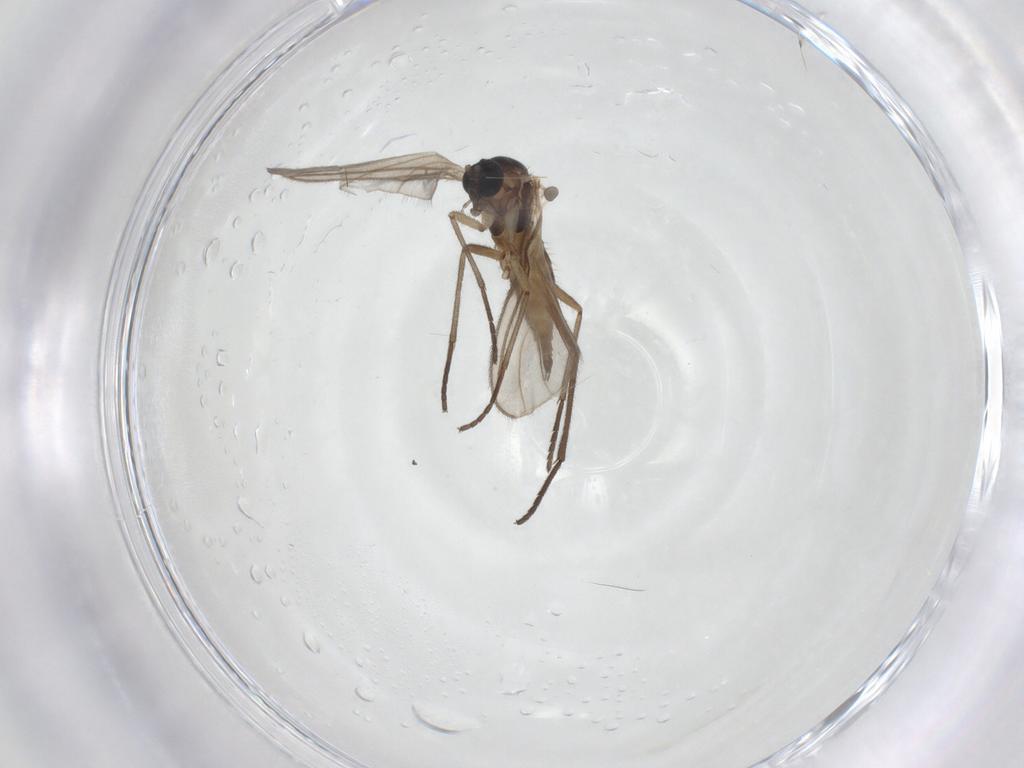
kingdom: Animalia
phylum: Arthropoda
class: Insecta
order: Diptera
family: Sciaridae
